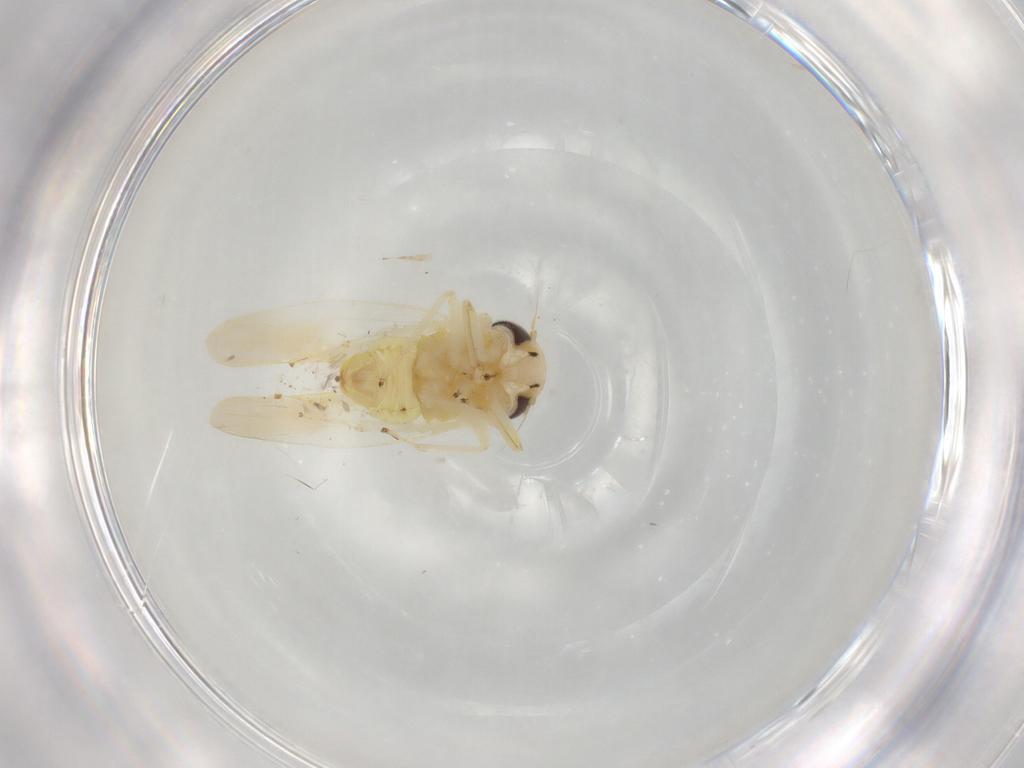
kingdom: Animalia
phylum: Arthropoda
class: Insecta
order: Hemiptera
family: Cicadellidae
